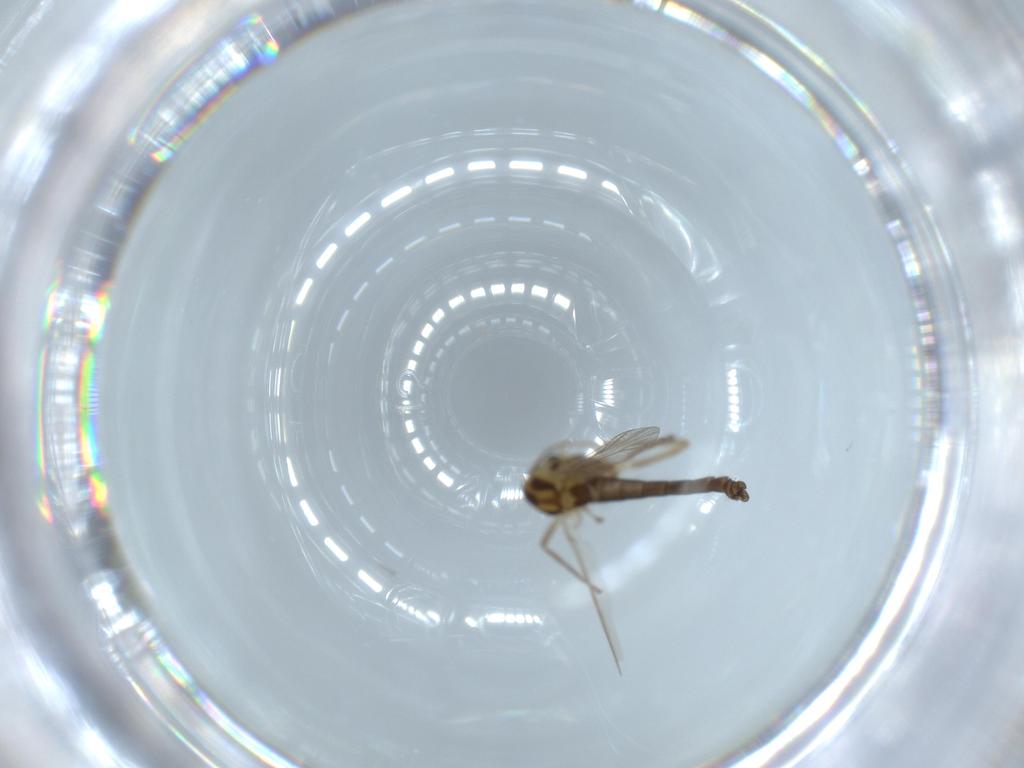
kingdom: Animalia
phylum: Arthropoda
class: Insecta
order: Diptera
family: Chironomidae
